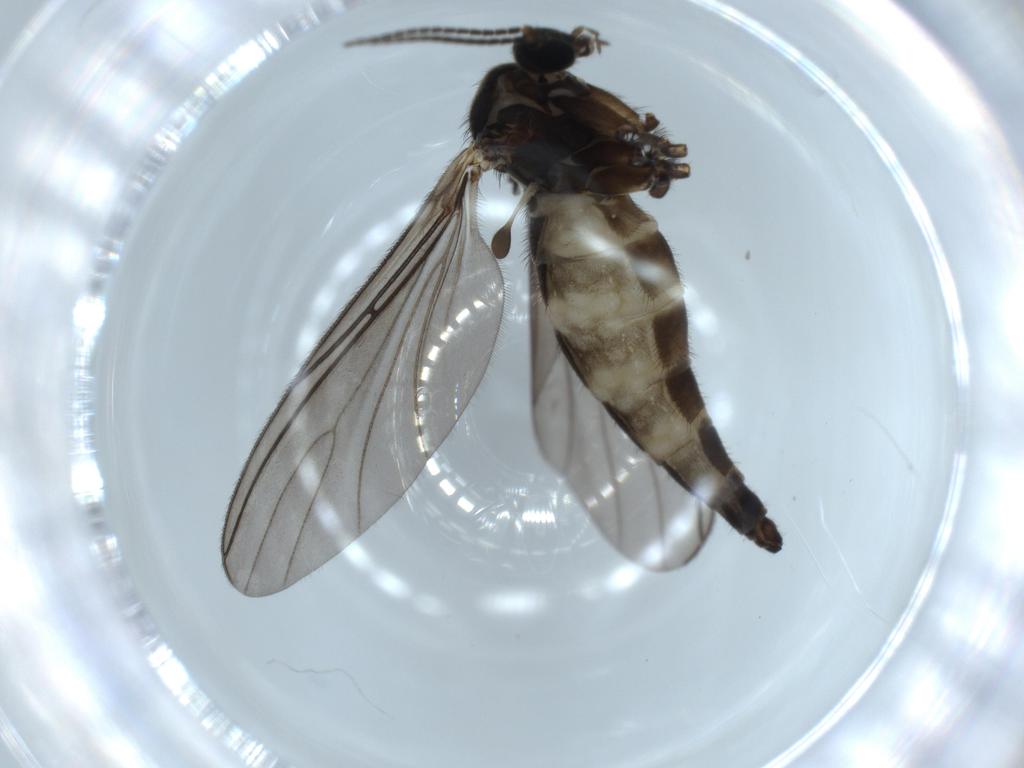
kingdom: Animalia
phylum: Arthropoda
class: Insecta
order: Diptera
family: Sciaridae
